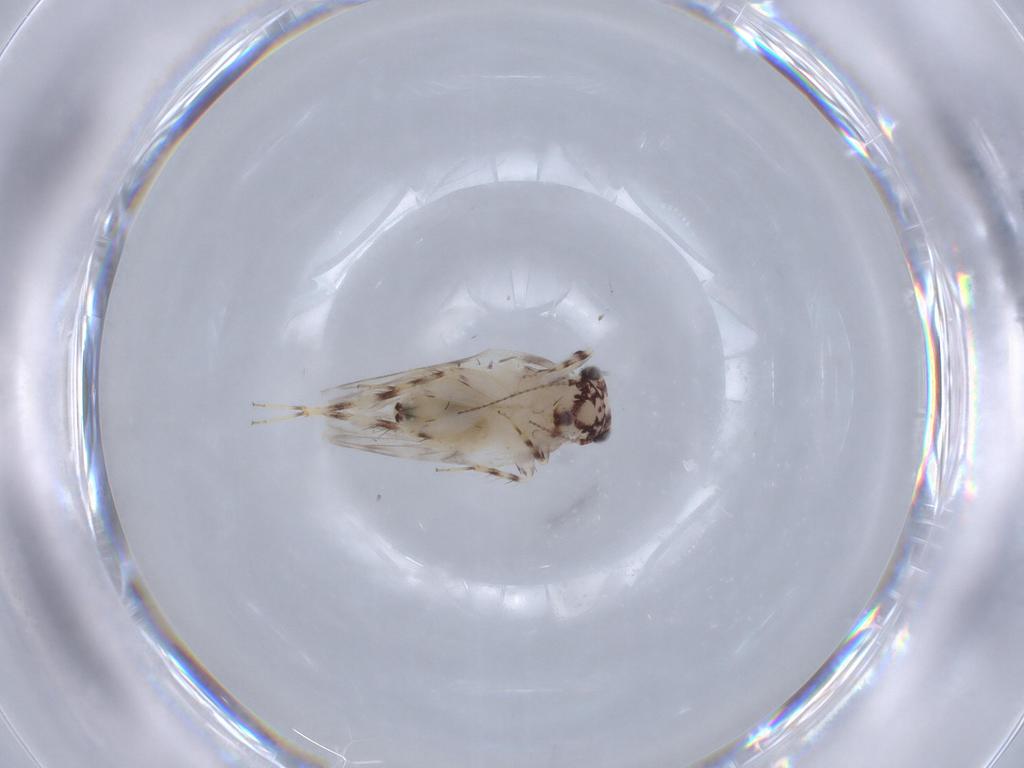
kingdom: Animalia
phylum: Arthropoda
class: Insecta
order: Psocodea
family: Lepidopsocidae
